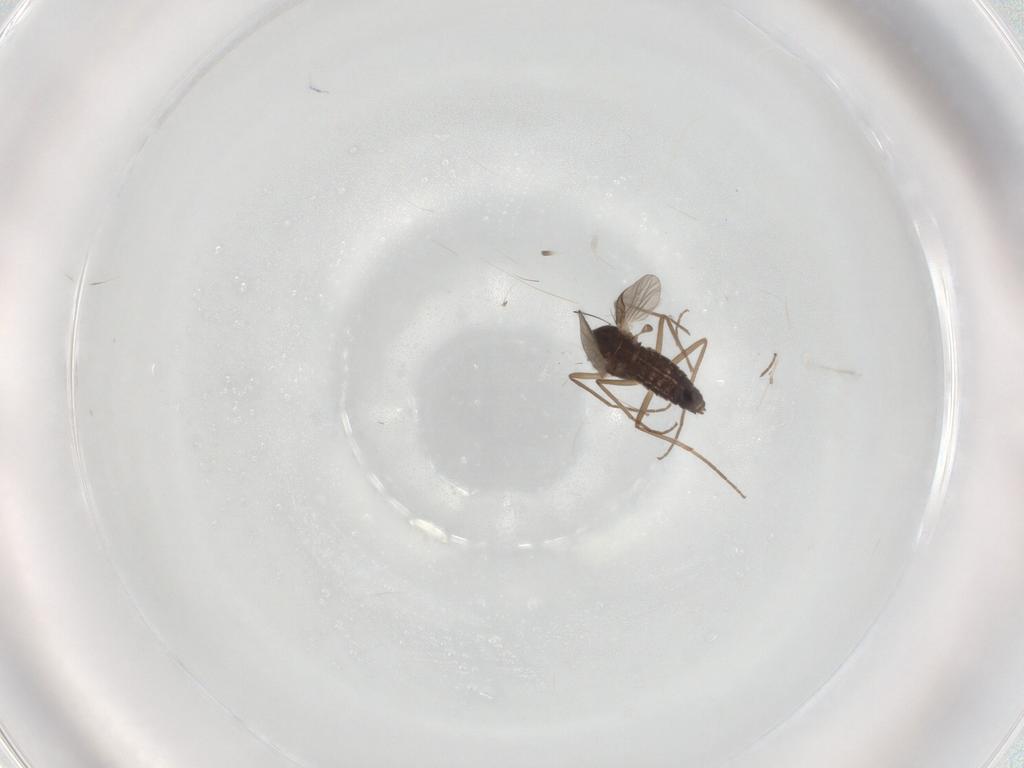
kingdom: Animalia
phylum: Arthropoda
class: Insecta
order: Diptera
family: Chironomidae
